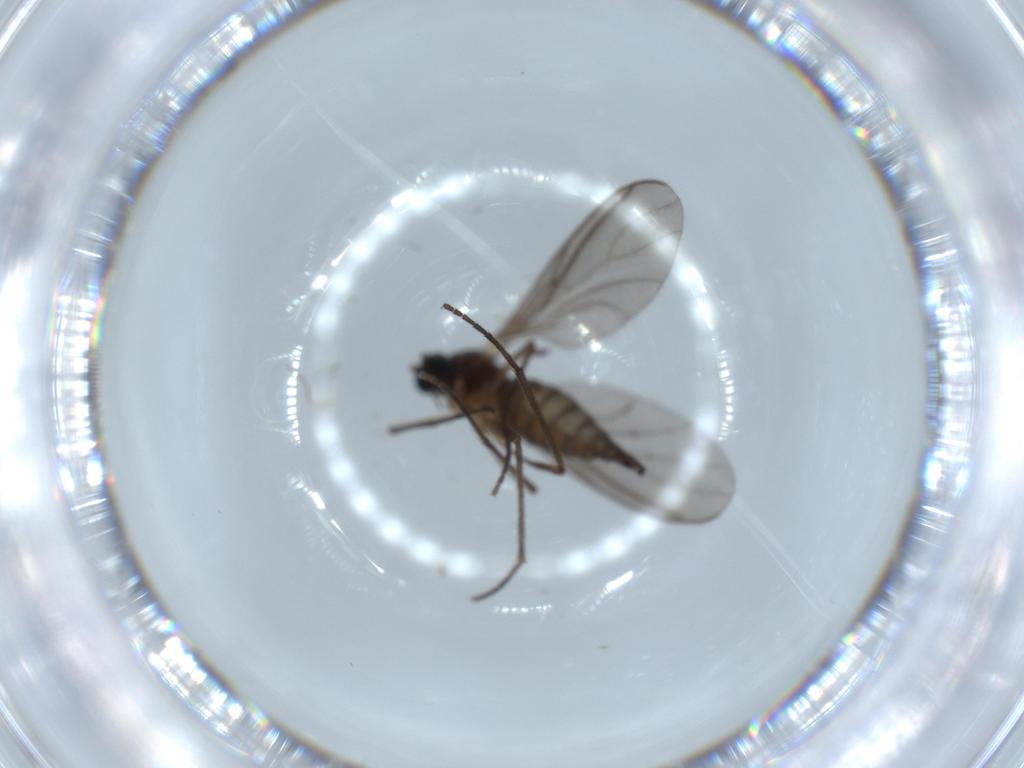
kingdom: Animalia
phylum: Arthropoda
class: Insecta
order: Diptera
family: Sciaridae
